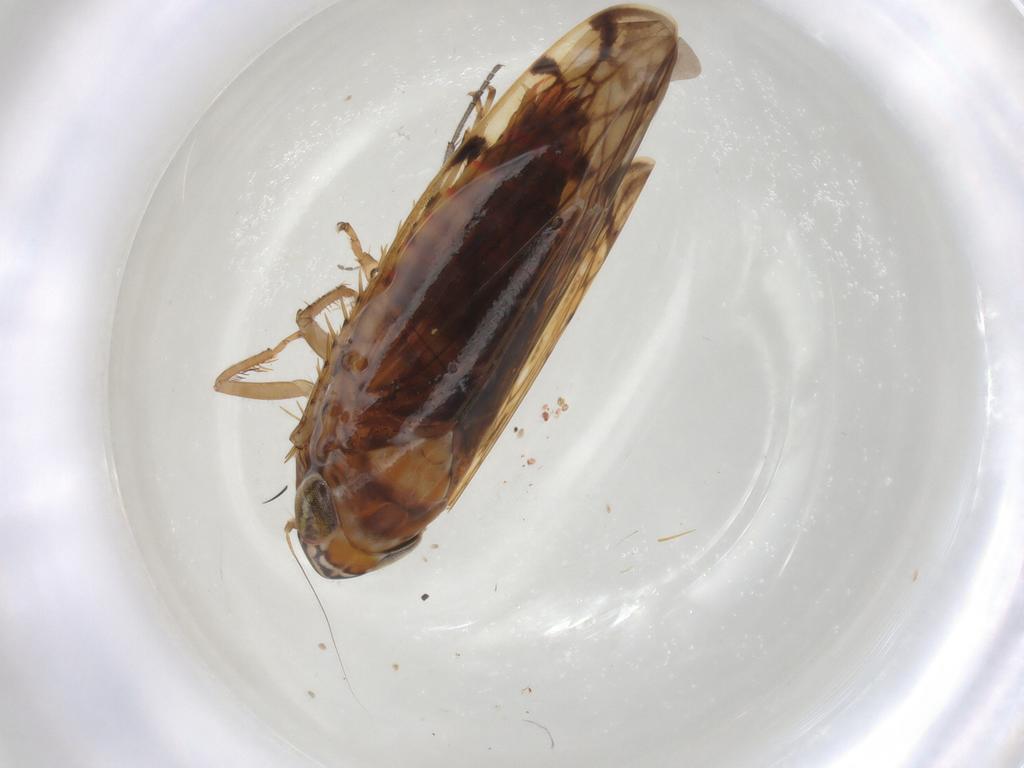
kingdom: Animalia
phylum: Arthropoda
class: Insecta
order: Hemiptera
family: Cicadellidae
